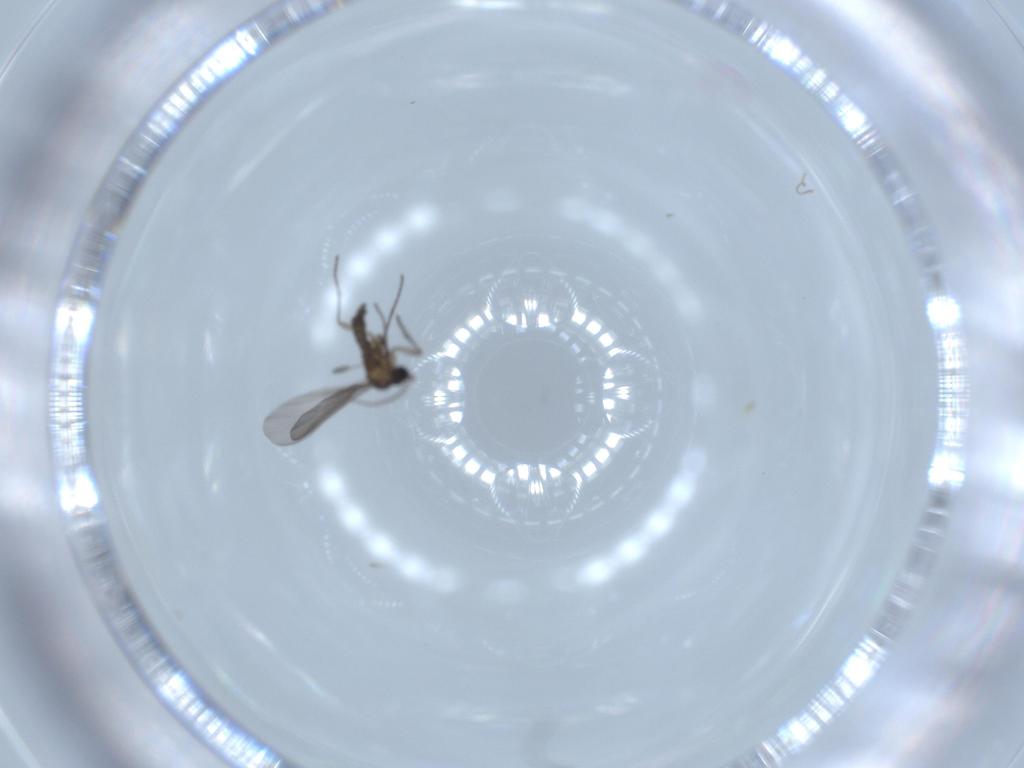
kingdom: Animalia
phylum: Arthropoda
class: Insecta
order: Diptera
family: Sciaridae
